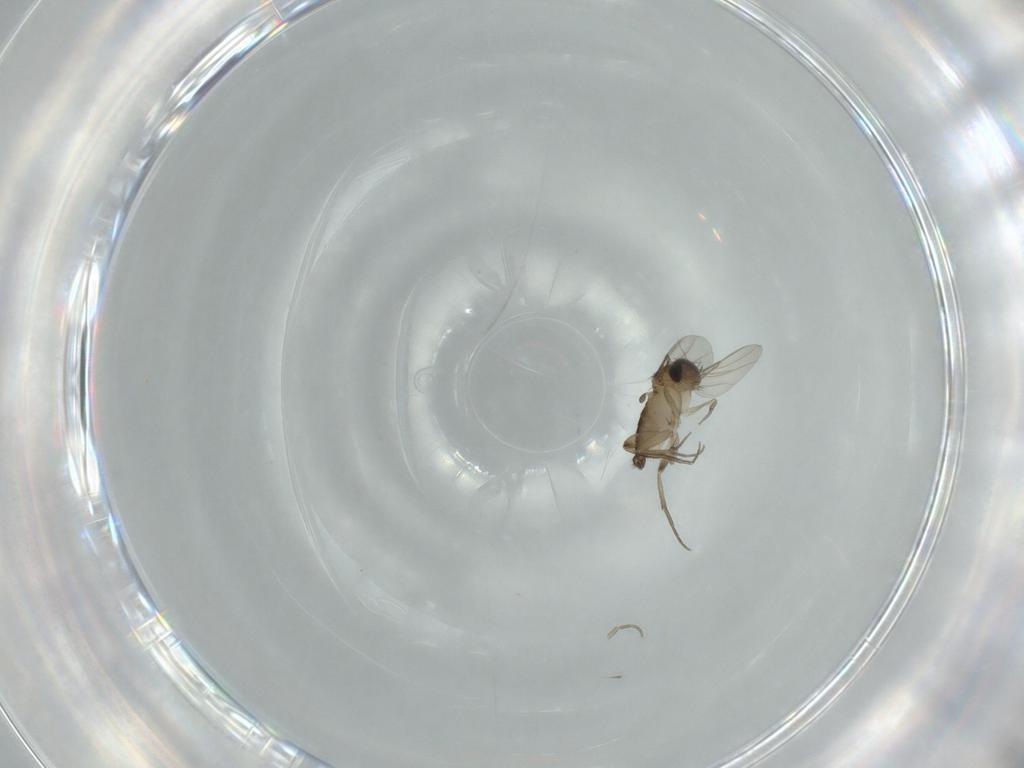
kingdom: Animalia
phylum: Arthropoda
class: Insecta
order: Diptera
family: Phoridae
